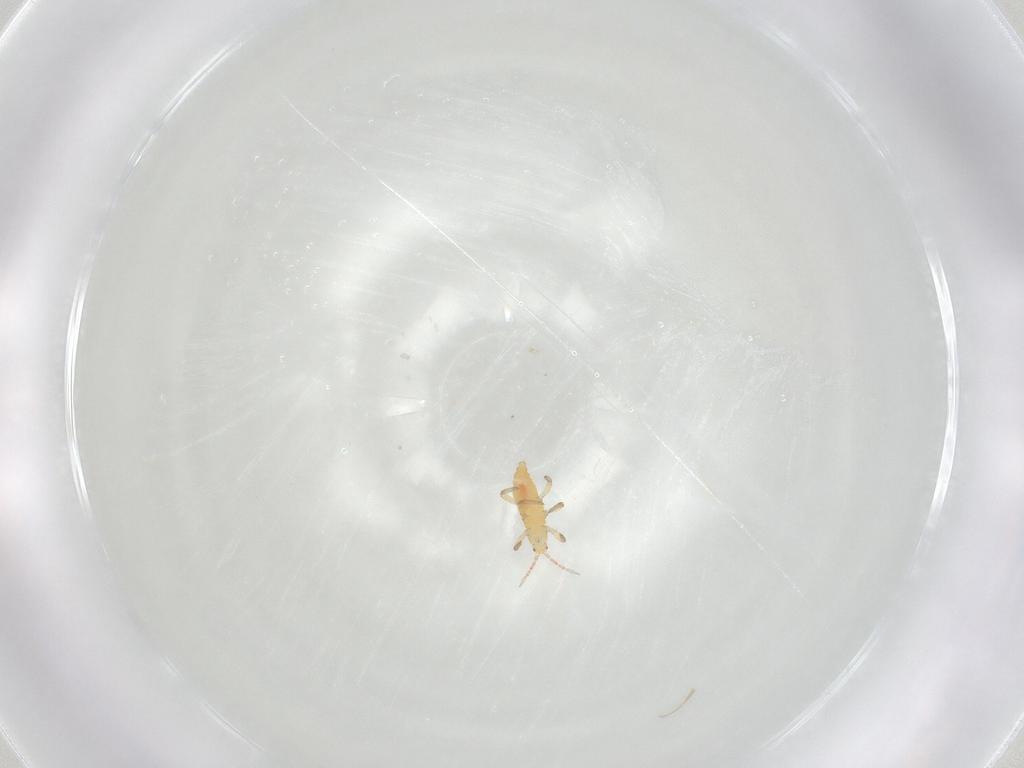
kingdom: Animalia
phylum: Arthropoda
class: Insecta
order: Thysanoptera
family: Aeolothripidae
